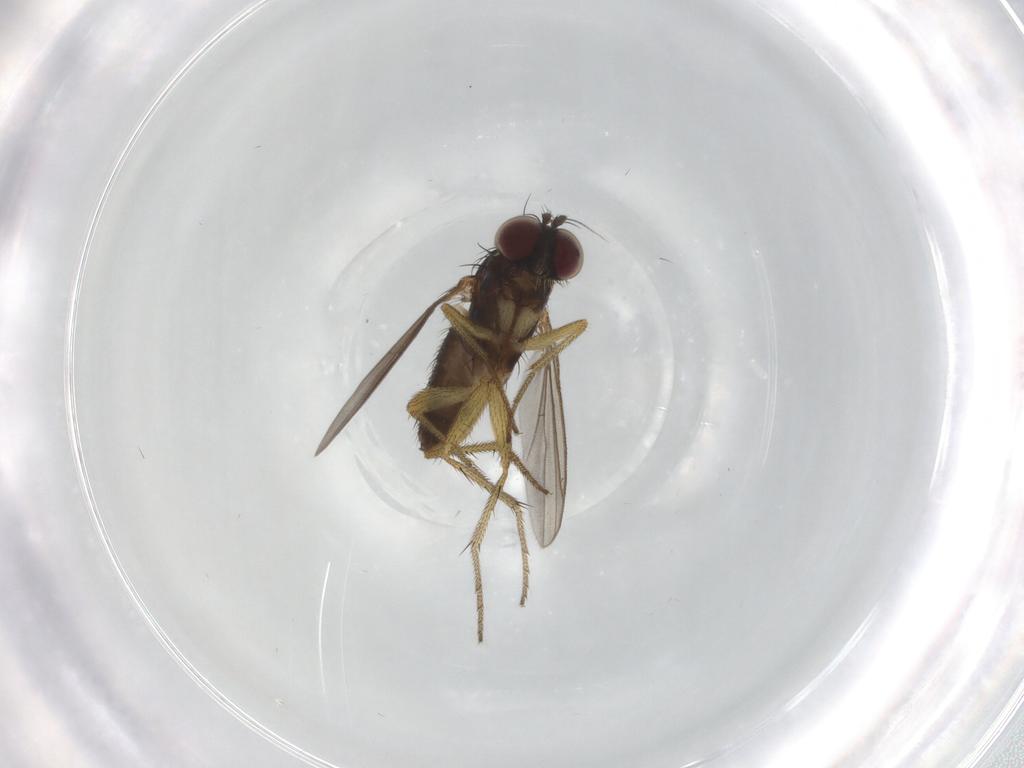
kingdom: Animalia
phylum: Arthropoda
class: Insecta
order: Diptera
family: Dolichopodidae
